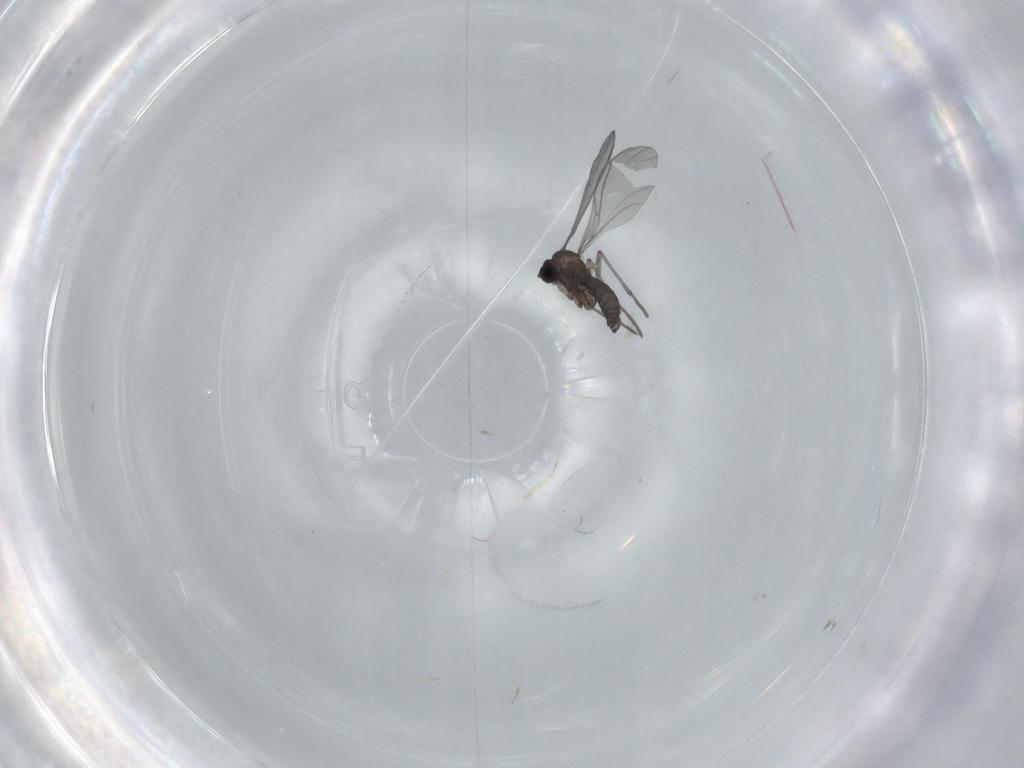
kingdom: Animalia
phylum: Arthropoda
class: Insecta
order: Diptera
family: Sciaridae
